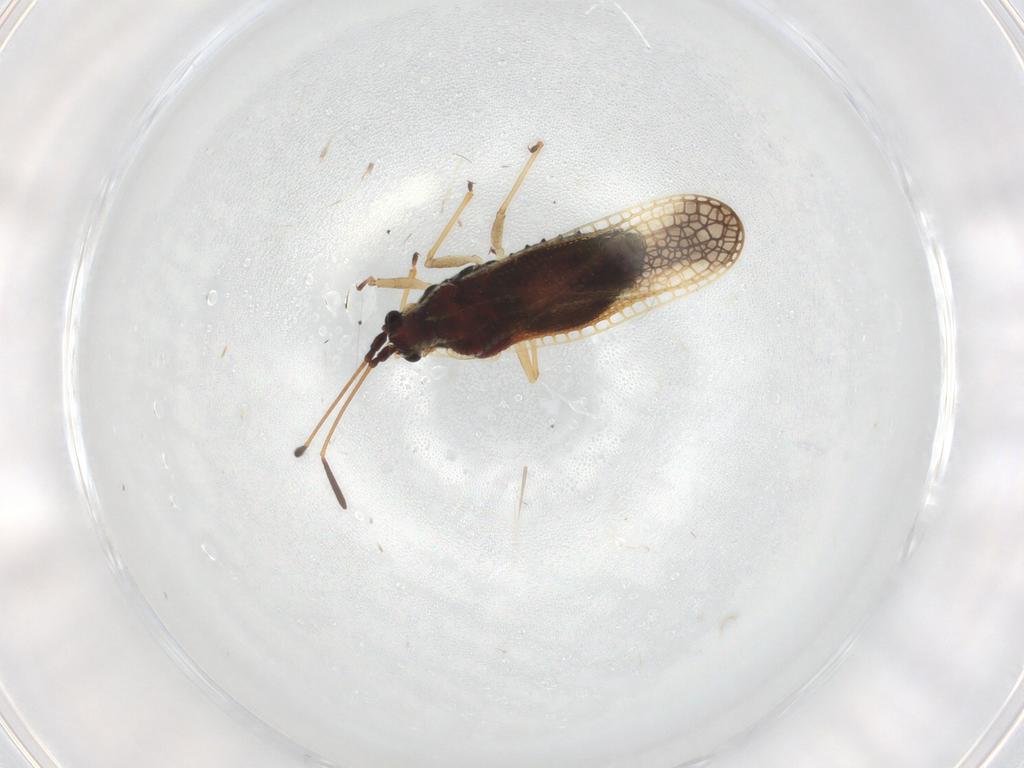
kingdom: Animalia
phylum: Arthropoda
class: Insecta
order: Hemiptera
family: Tingidae
